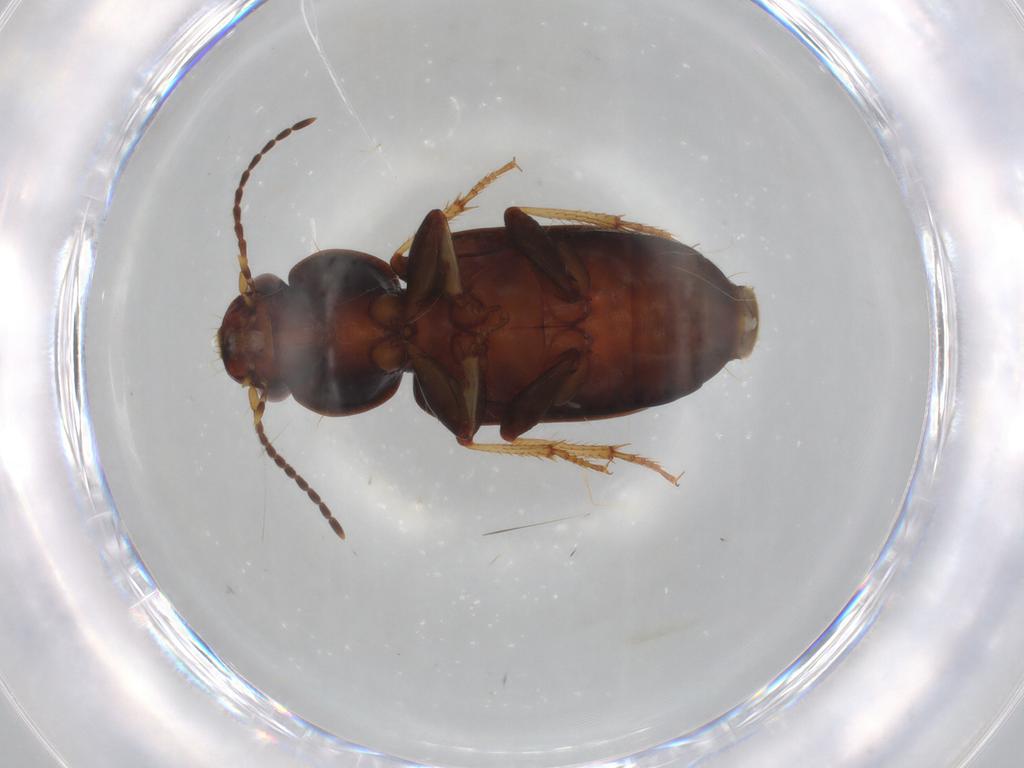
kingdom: Animalia
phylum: Arthropoda
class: Insecta
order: Coleoptera
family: Carabidae
